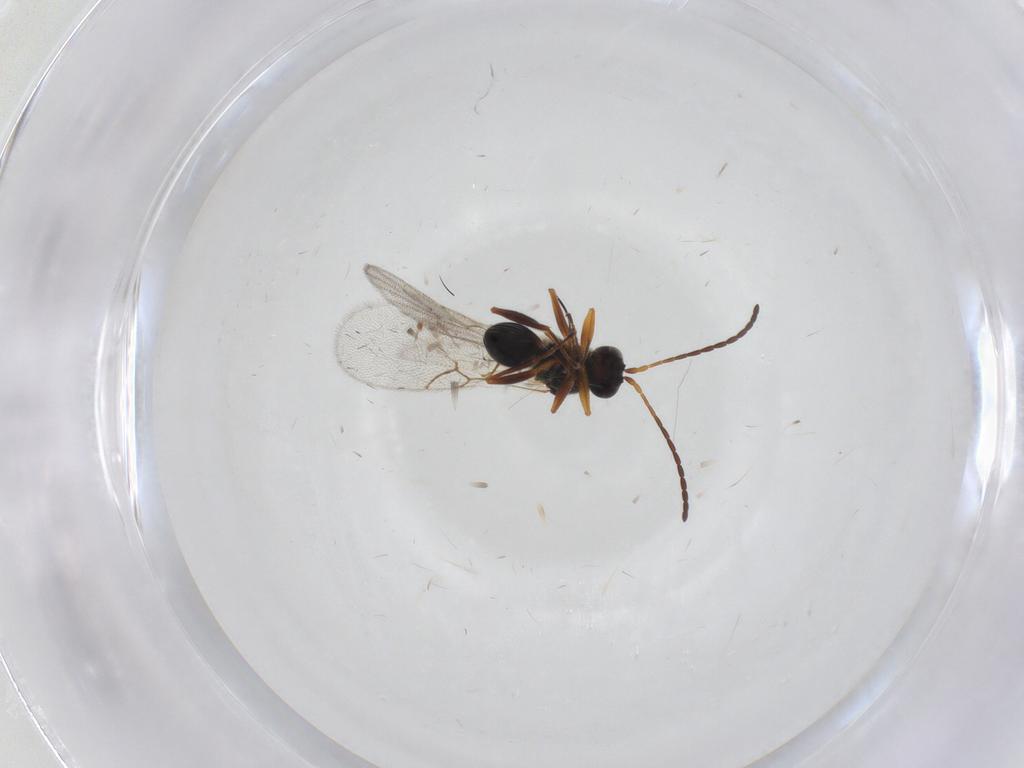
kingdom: Animalia
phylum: Arthropoda
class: Insecta
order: Hymenoptera
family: Figitidae
